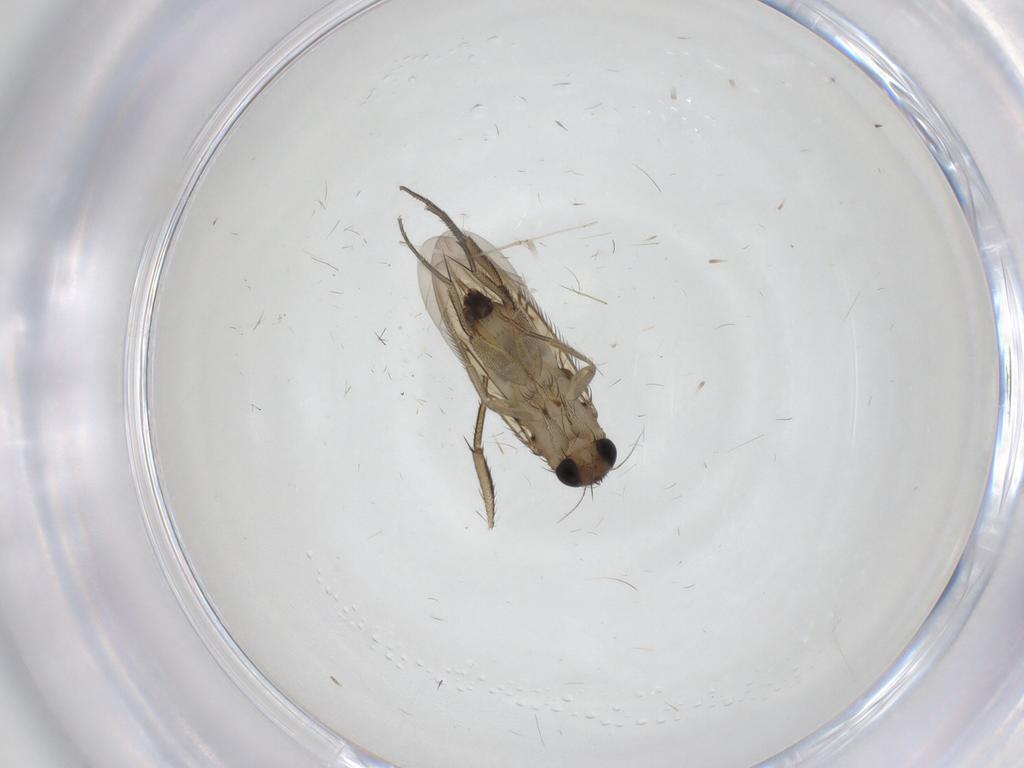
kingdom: Animalia
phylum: Arthropoda
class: Insecta
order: Diptera
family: Phoridae
